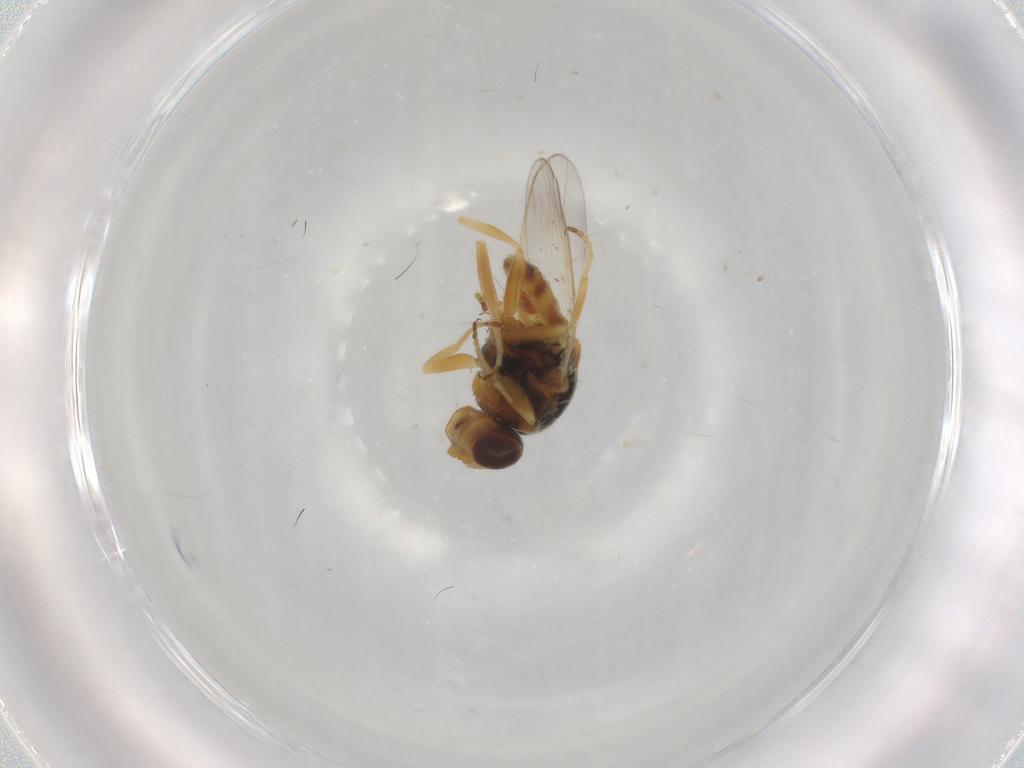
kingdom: Animalia
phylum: Arthropoda
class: Insecta
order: Diptera
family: Chloropidae
